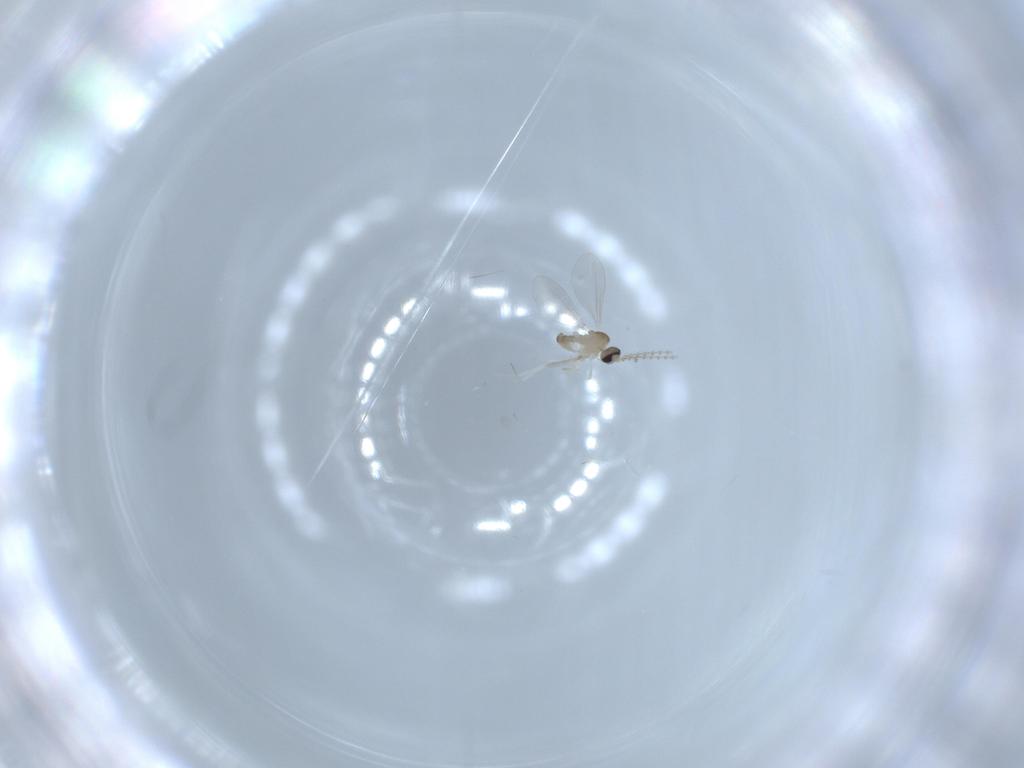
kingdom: Animalia
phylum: Arthropoda
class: Insecta
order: Diptera
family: Cecidomyiidae
